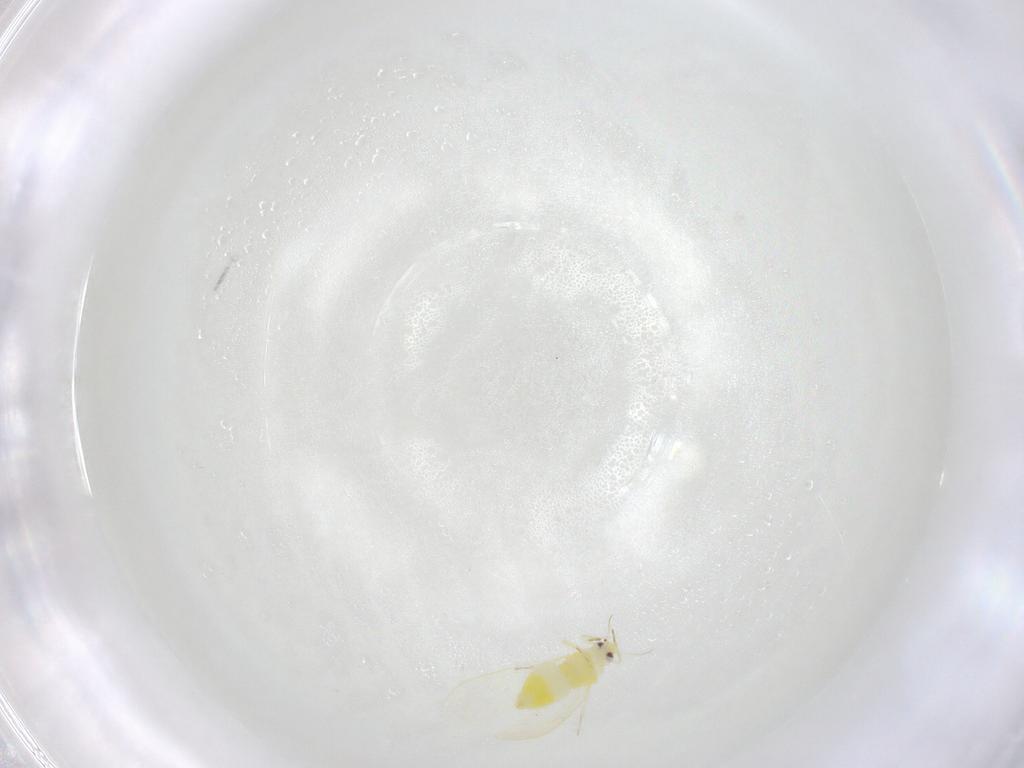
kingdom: Animalia
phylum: Arthropoda
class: Insecta
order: Hemiptera
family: Aleyrodidae
